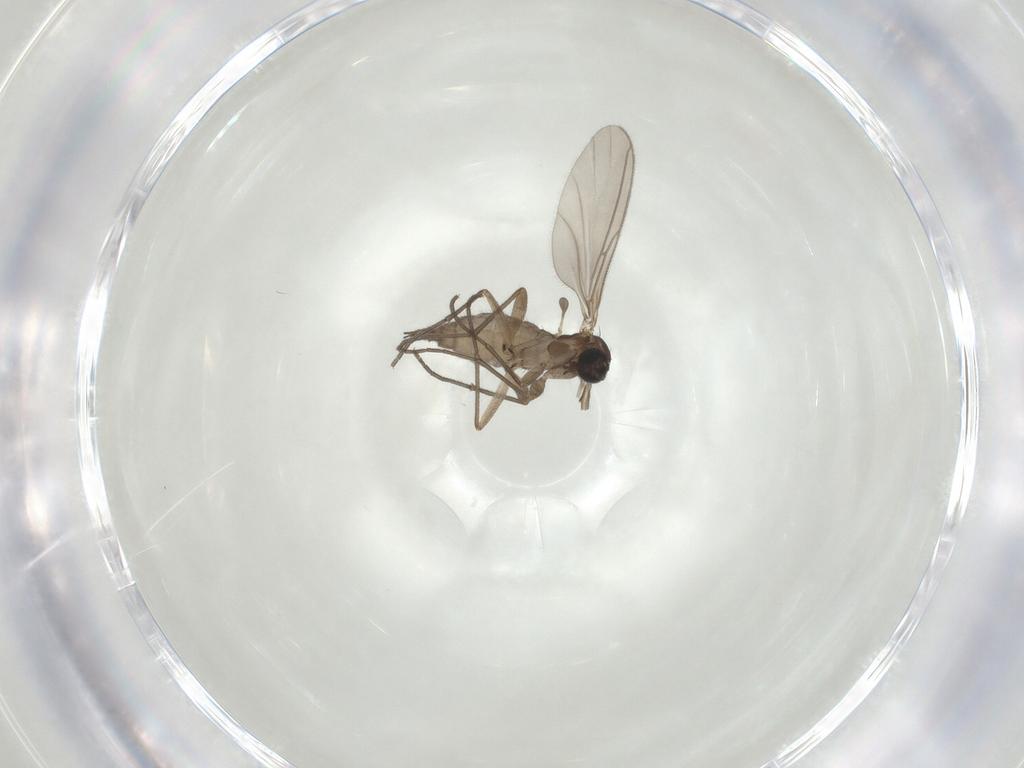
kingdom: Animalia
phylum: Arthropoda
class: Insecta
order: Diptera
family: Sciaridae
